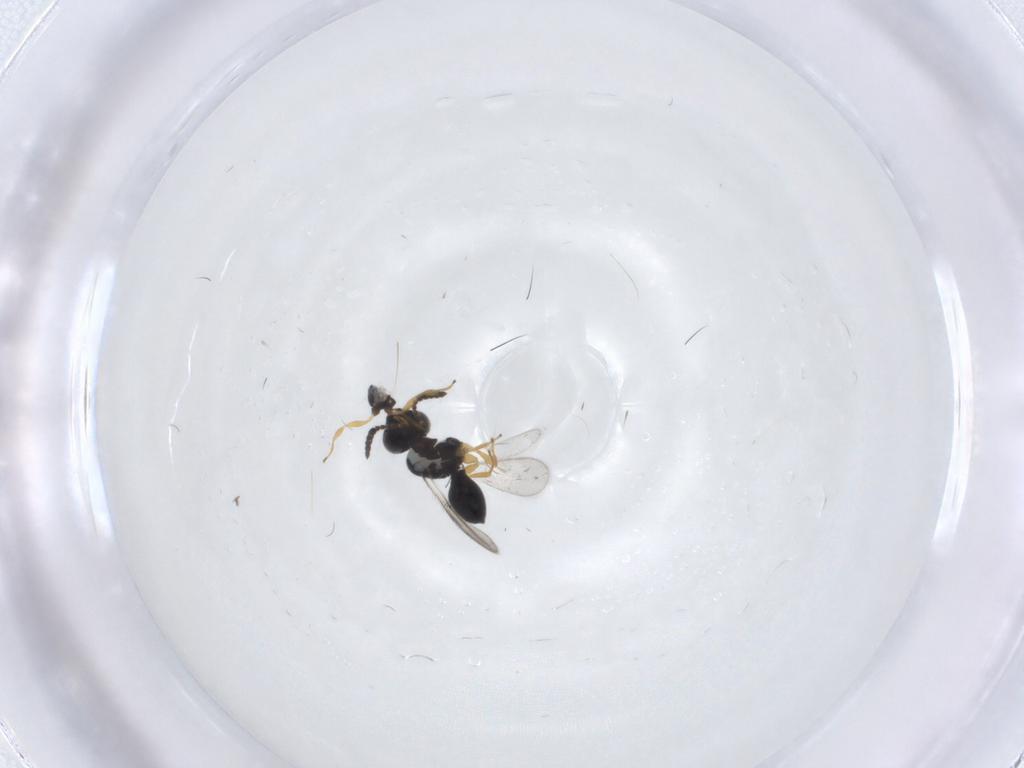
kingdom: Animalia
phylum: Arthropoda
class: Insecta
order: Hymenoptera
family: Scelionidae
